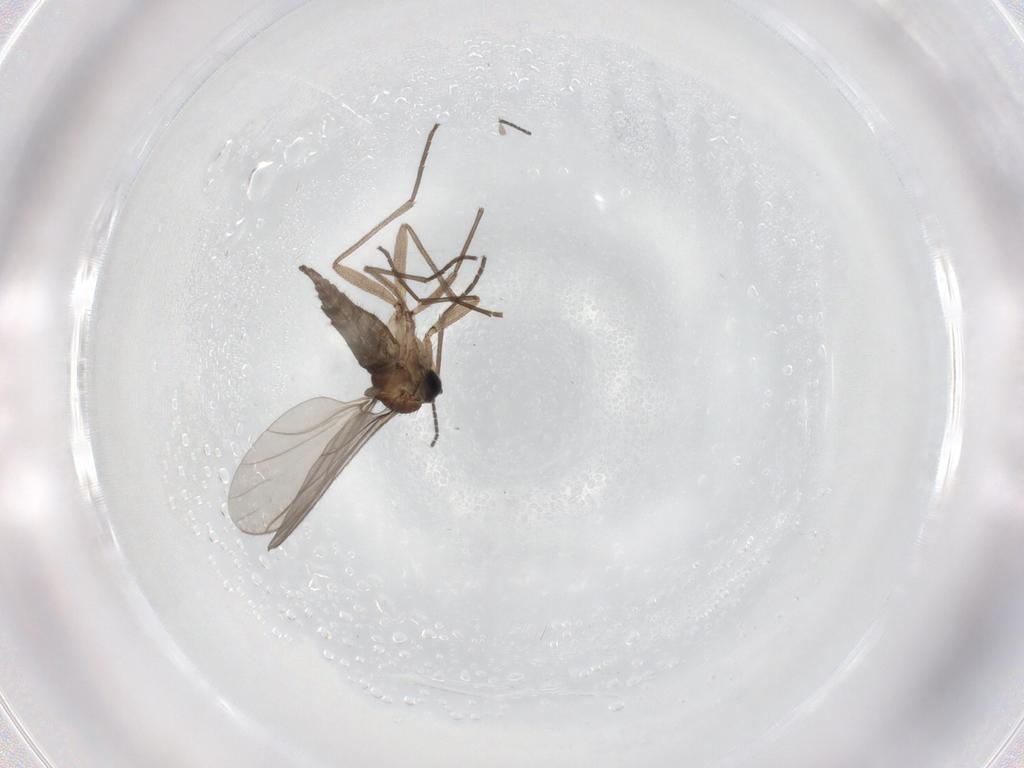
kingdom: Animalia
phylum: Arthropoda
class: Insecta
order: Diptera
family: Sciaridae
